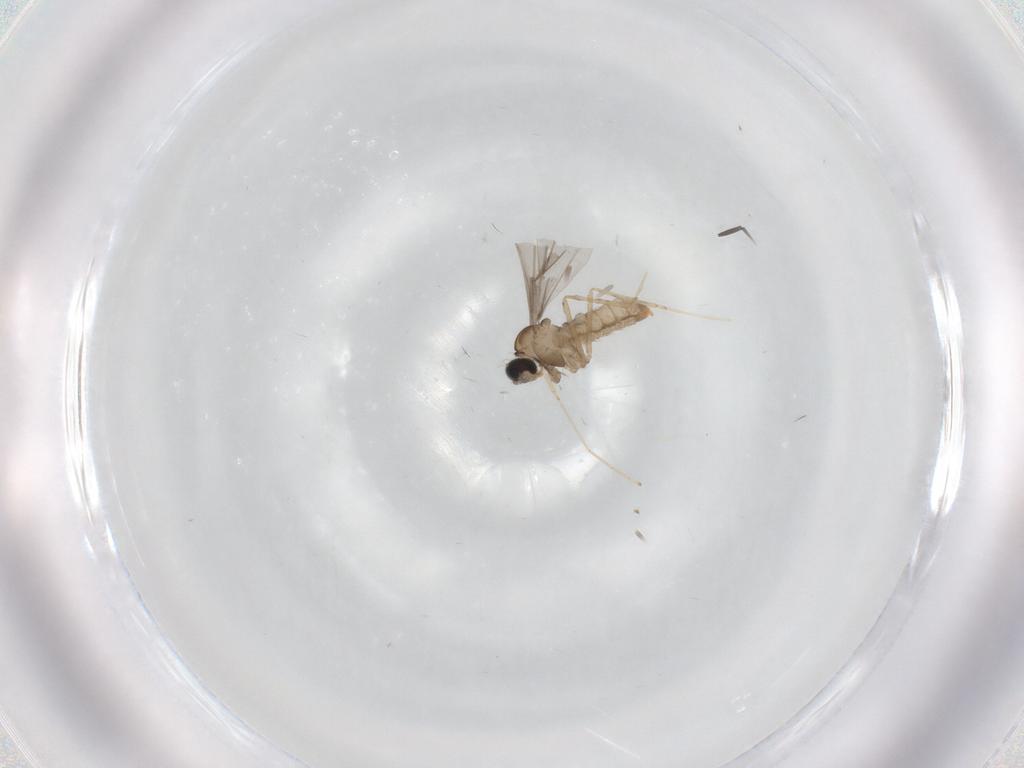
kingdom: Animalia
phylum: Arthropoda
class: Insecta
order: Diptera
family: Cecidomyiidae
